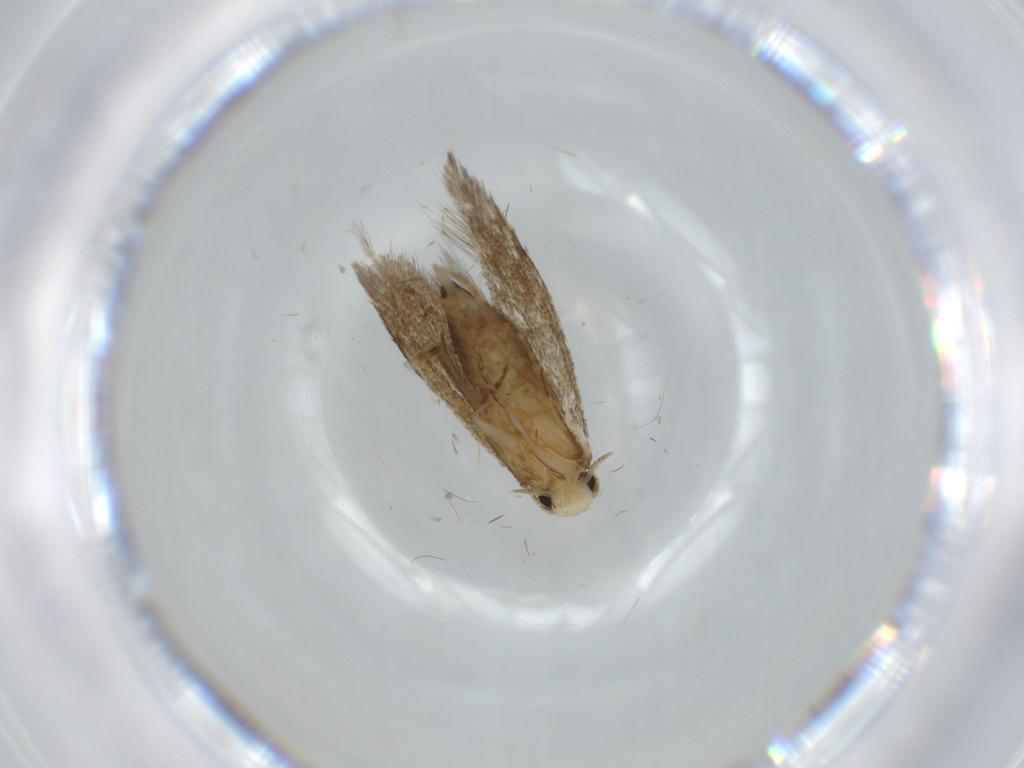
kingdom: Animalia
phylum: Arthropoda
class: Insecta
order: Lepidoptera
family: Tineidae
